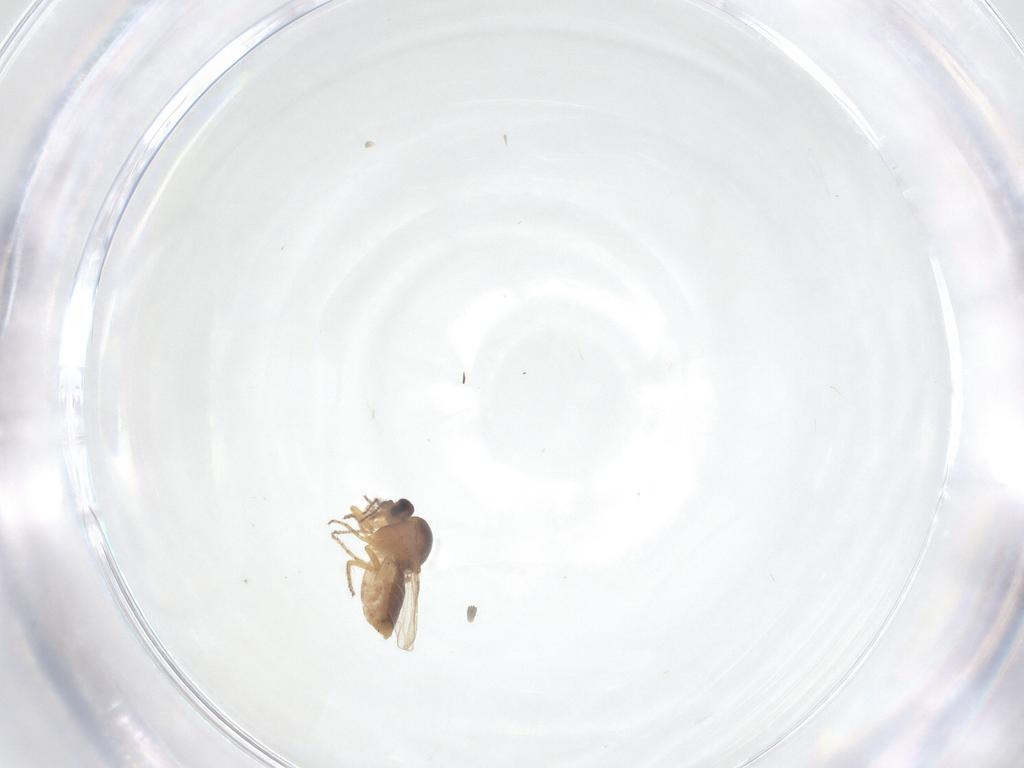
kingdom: Animalia
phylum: Arthropoda
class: Insecta
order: Diptera
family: Ceratopogonidae
